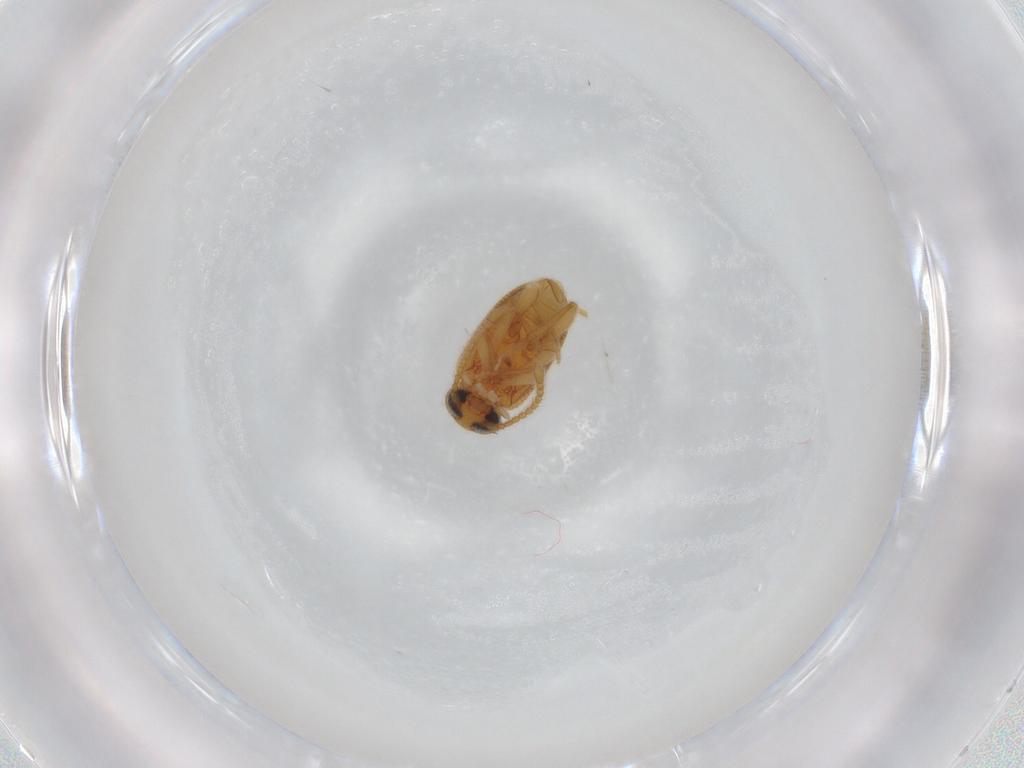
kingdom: Animalia
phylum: Arthropoda
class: Insecta
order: Coleoptera
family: Aderidae
